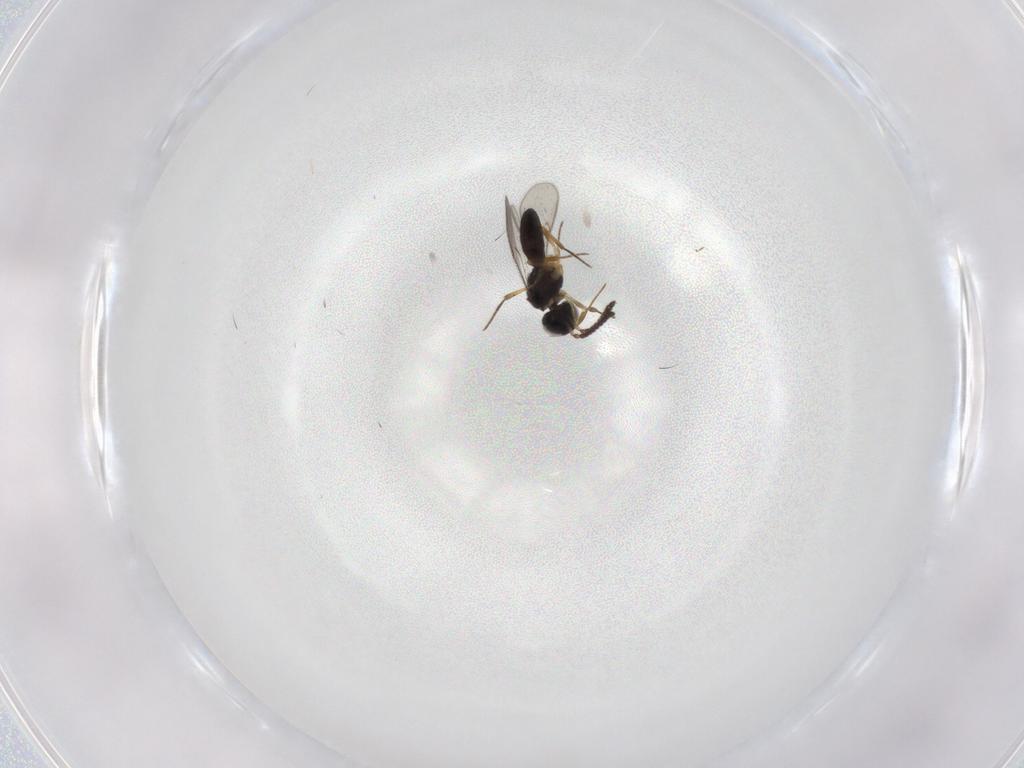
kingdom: Animalia
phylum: Arthropoda
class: Insecta
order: Hymenoptera
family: Scelionidae
